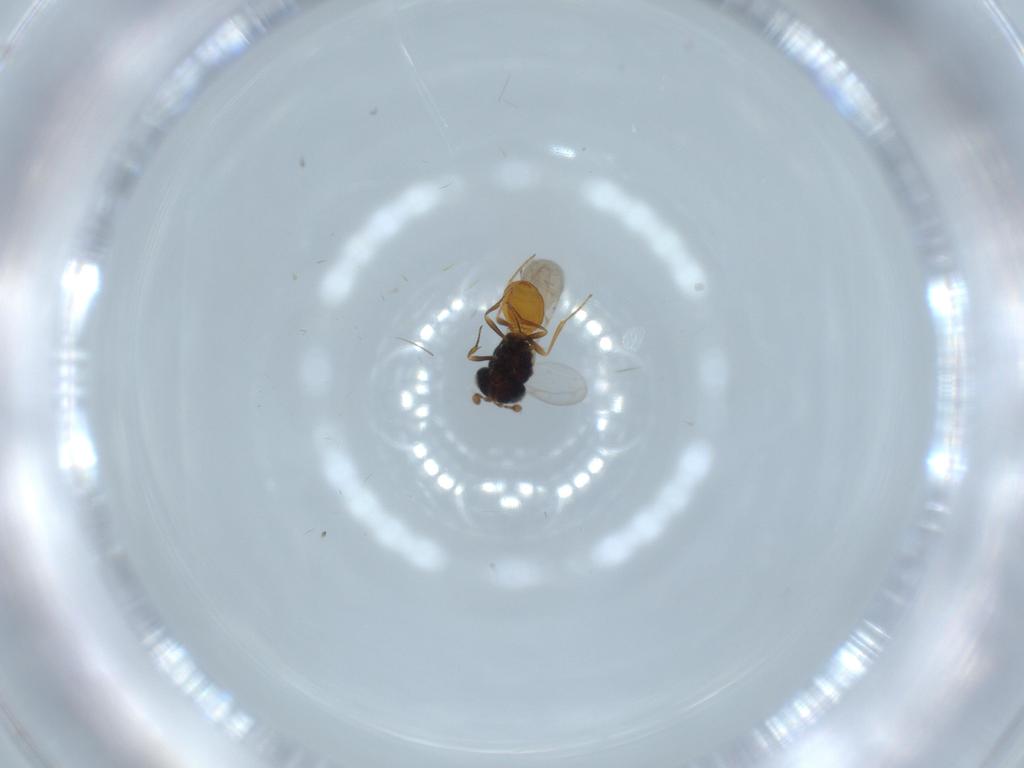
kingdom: Animalia
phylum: Arthropoda
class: Insecta
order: Hymenoptera
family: Scelionidae
